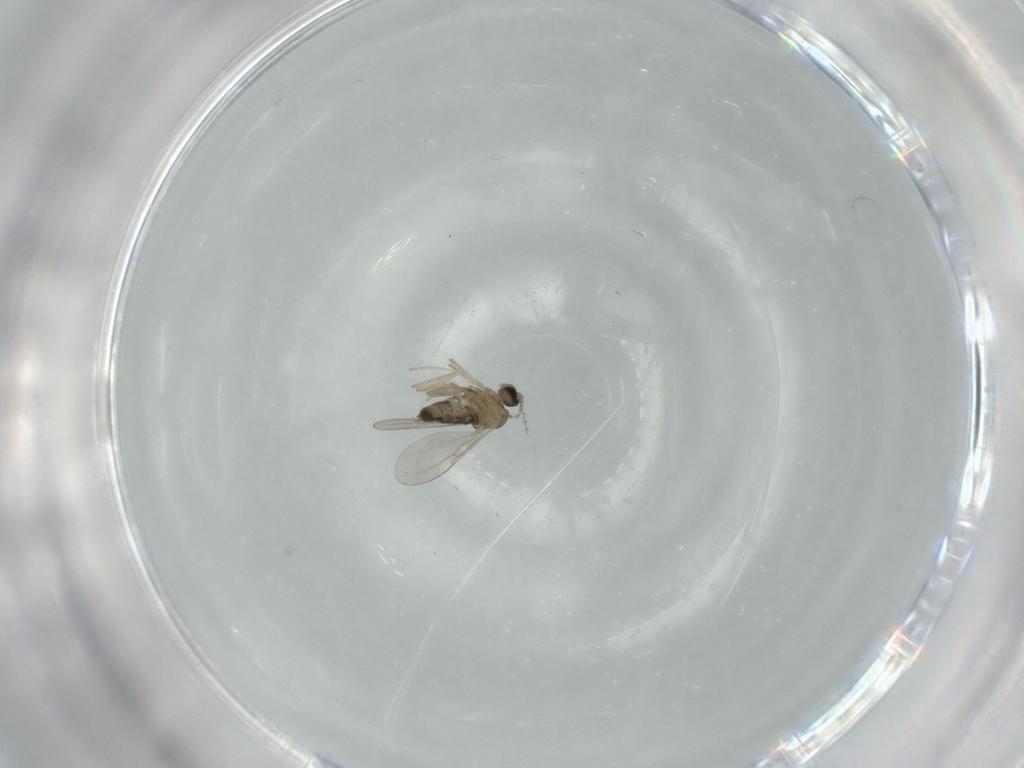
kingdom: Animalia
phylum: Arthropoda
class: Insecta
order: Diptera
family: Cecidomyiidae
